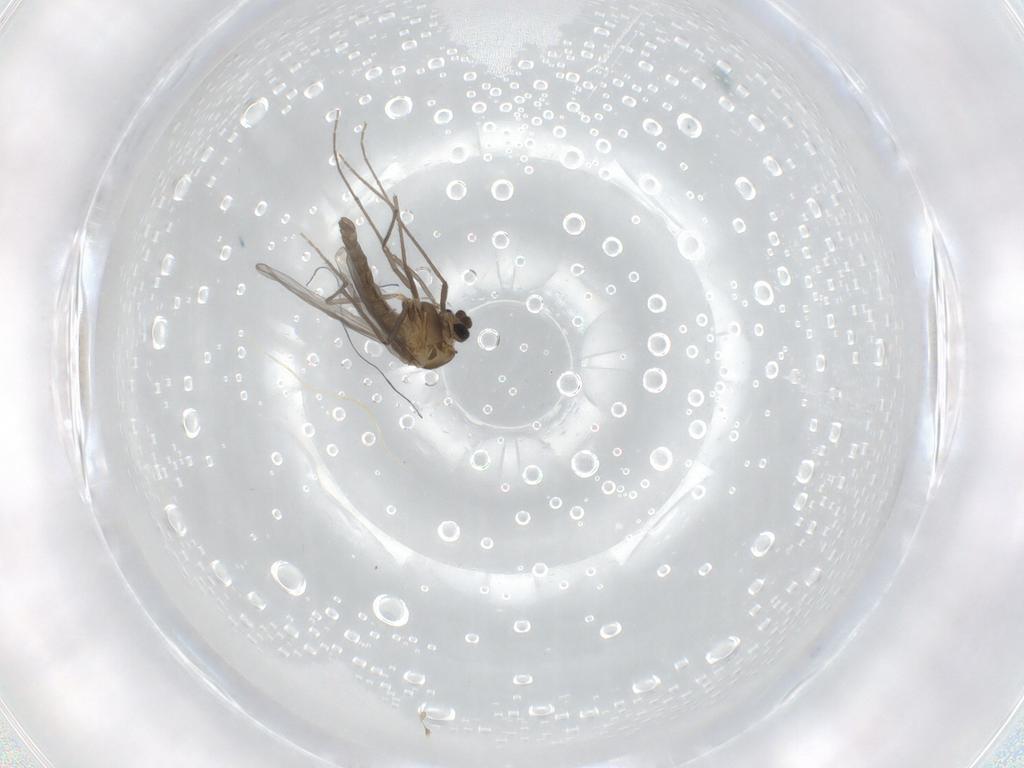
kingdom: Animalia
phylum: Arthropoda
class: Insecta
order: Diptera
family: Chironomidae
